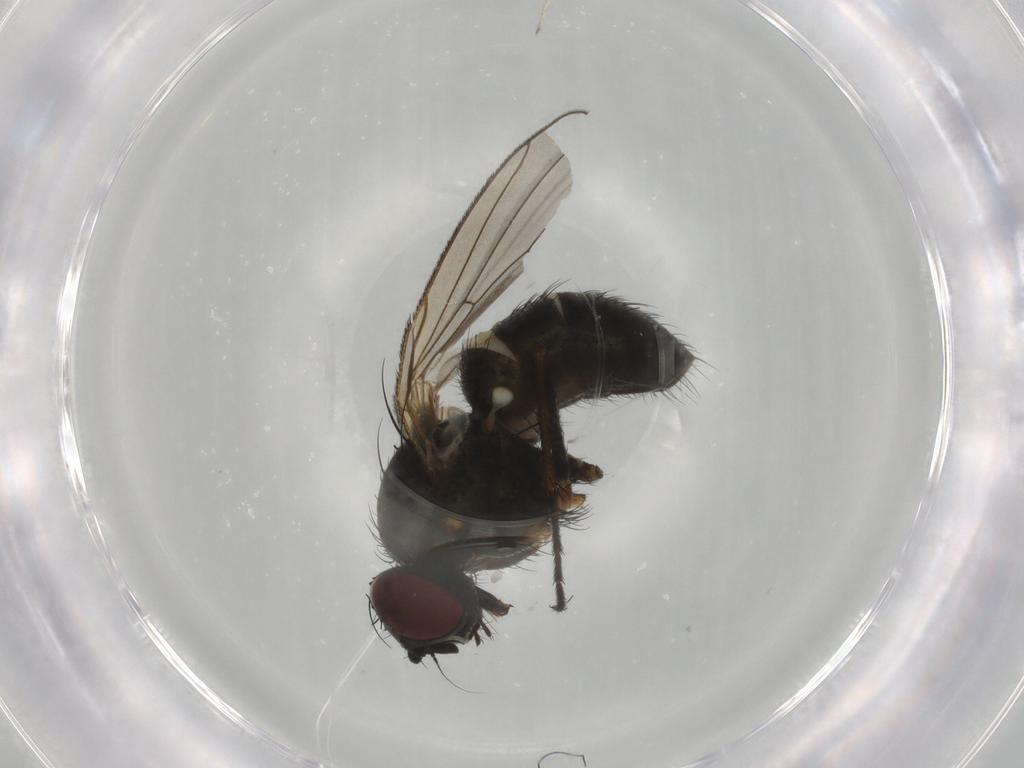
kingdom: Animalia
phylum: Arthropoda
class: Insecta
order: Diptera
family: Muscidae
